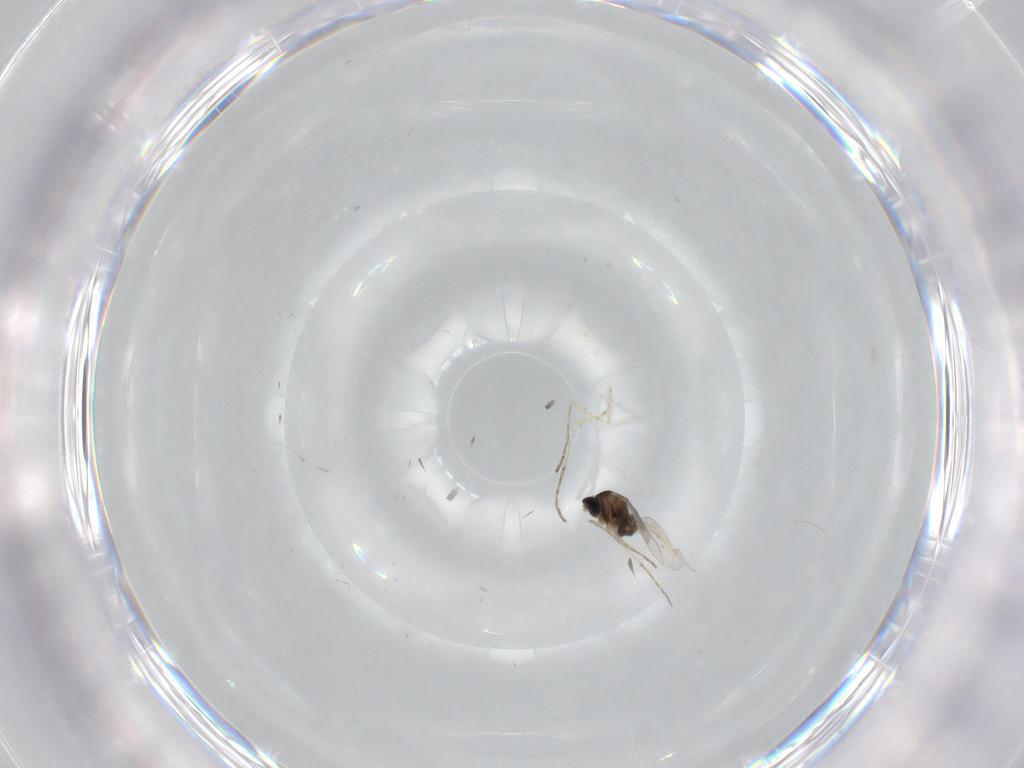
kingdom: Animalia
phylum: Arthropoda
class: Insecta
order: Diptera
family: Cecidomyiidae
